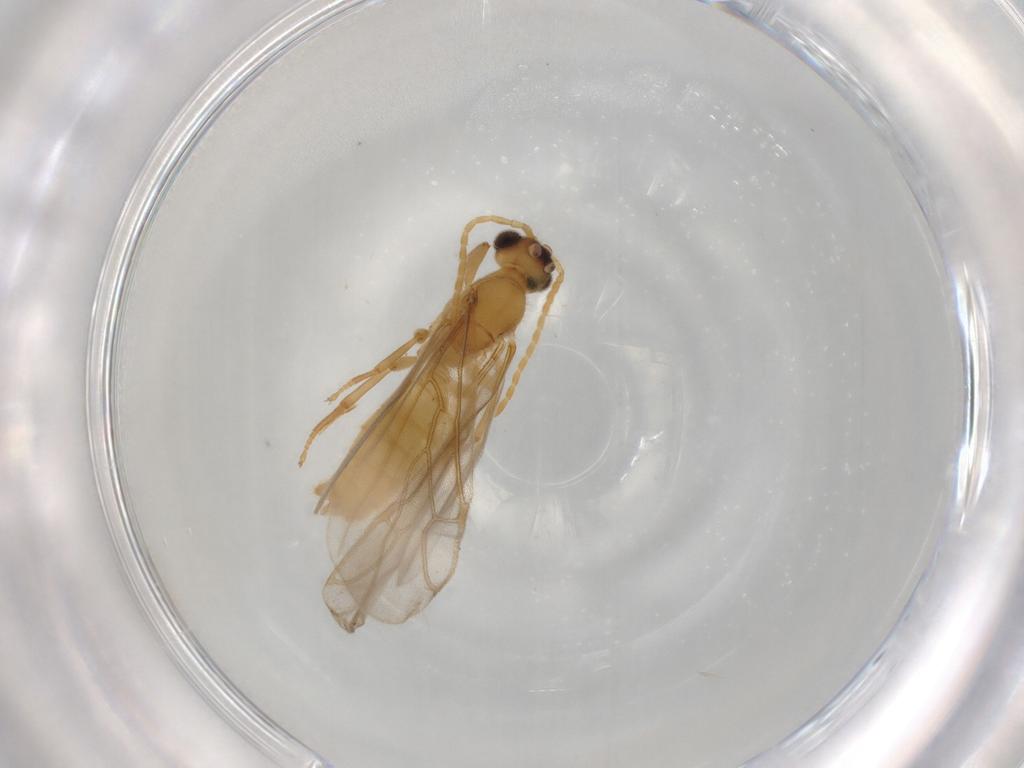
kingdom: Animalia
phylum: Arthropoda
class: Insecta
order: Hymenoptera
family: Formicidae
